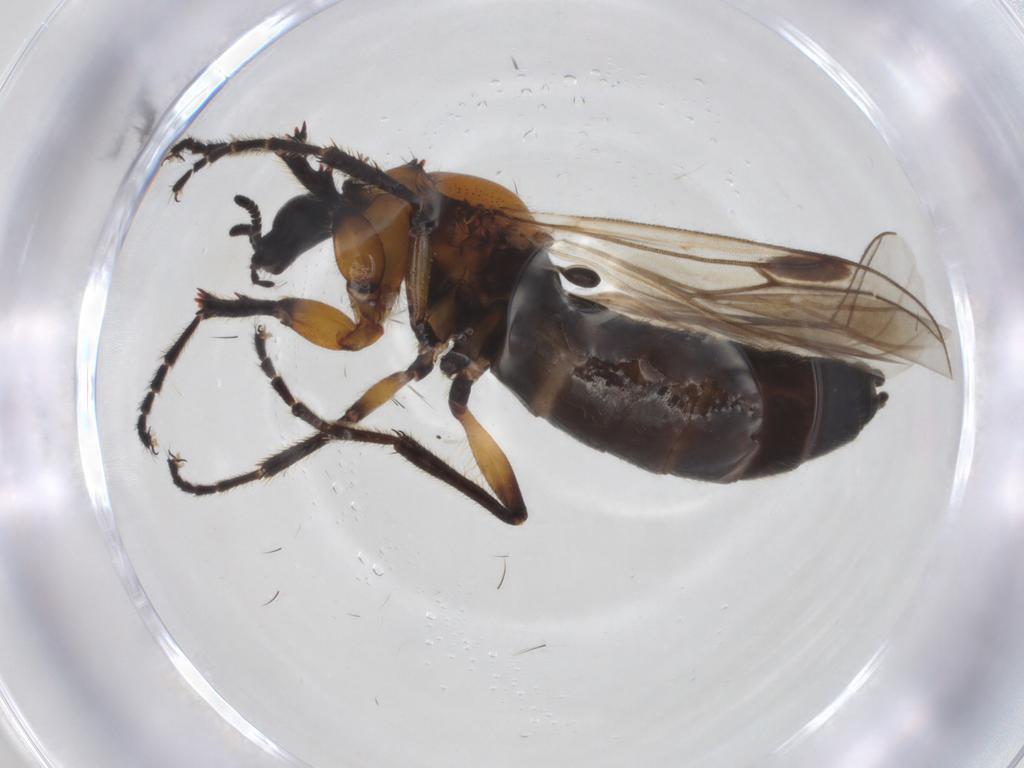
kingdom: Animalia
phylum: Arthropoda
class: Insecta
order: Diptera
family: Bibionidae
